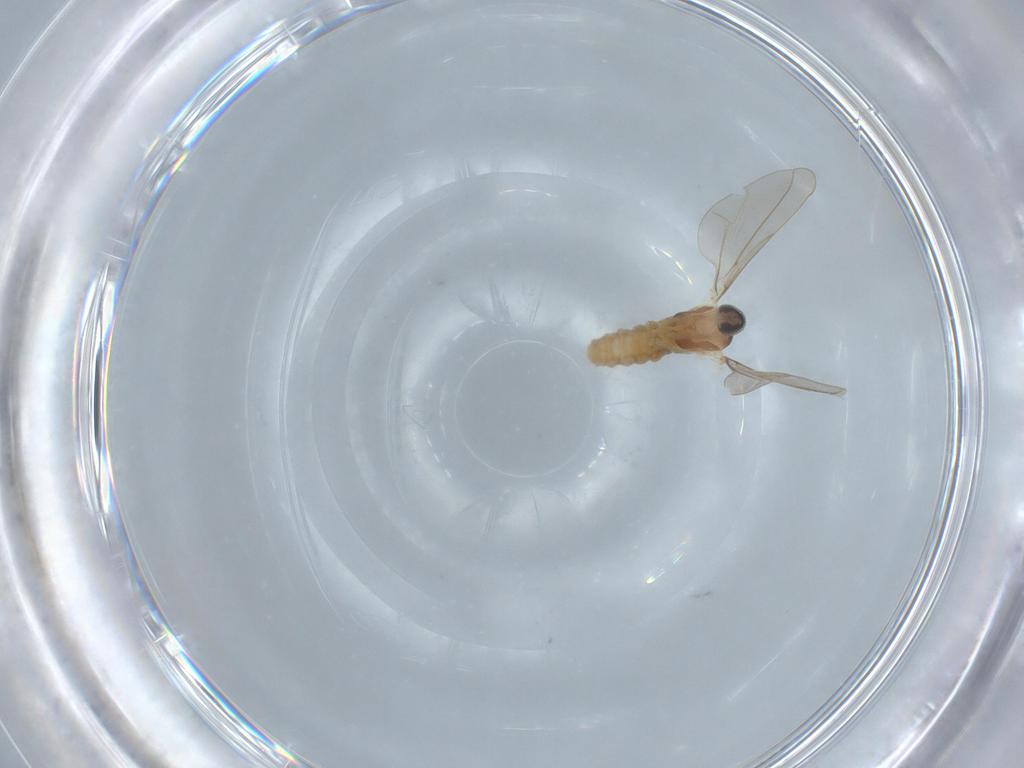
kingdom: Animalia
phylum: Arthropoda
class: Insecta
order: Diptera
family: Cecidomyiidae
